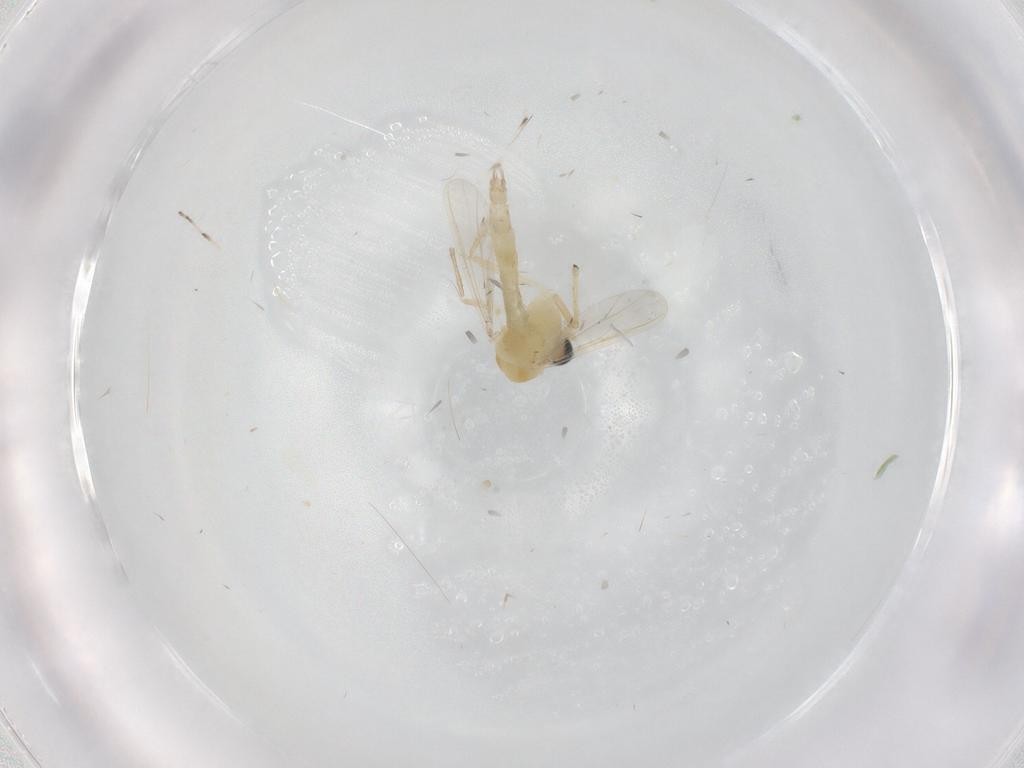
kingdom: Animalia
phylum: Arthropoda
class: Insecta
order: Diptera
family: Chironomidae
